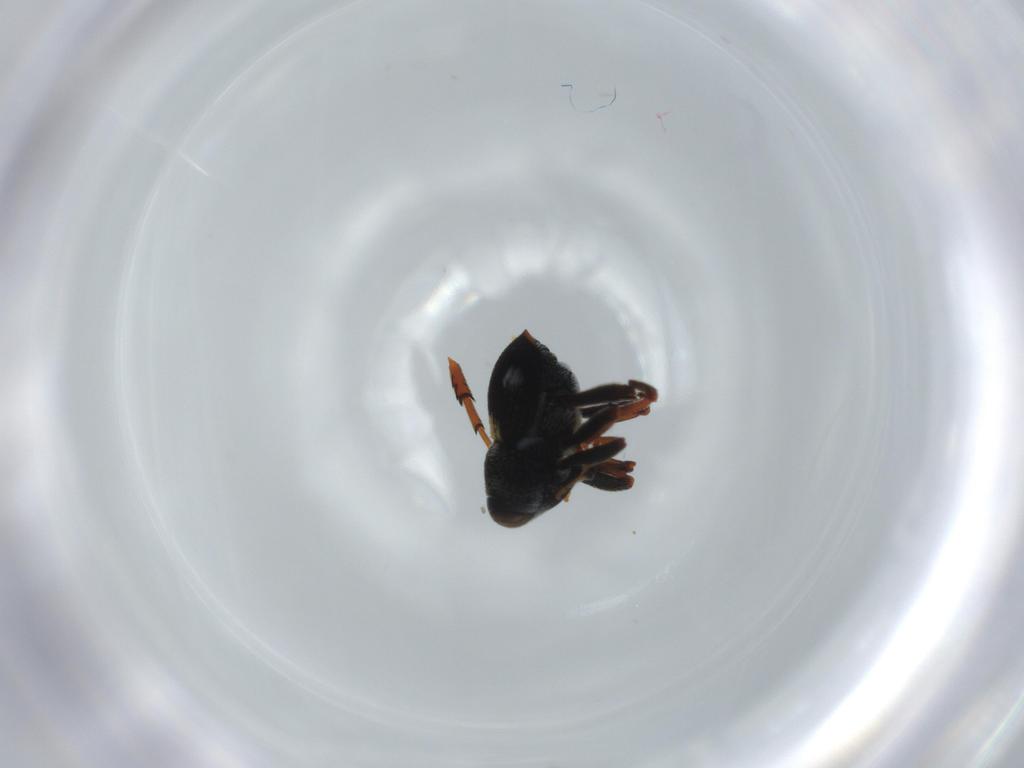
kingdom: Animalia
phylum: Arthropoda
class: Insecta
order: Coleoptera
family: Curculionidae
